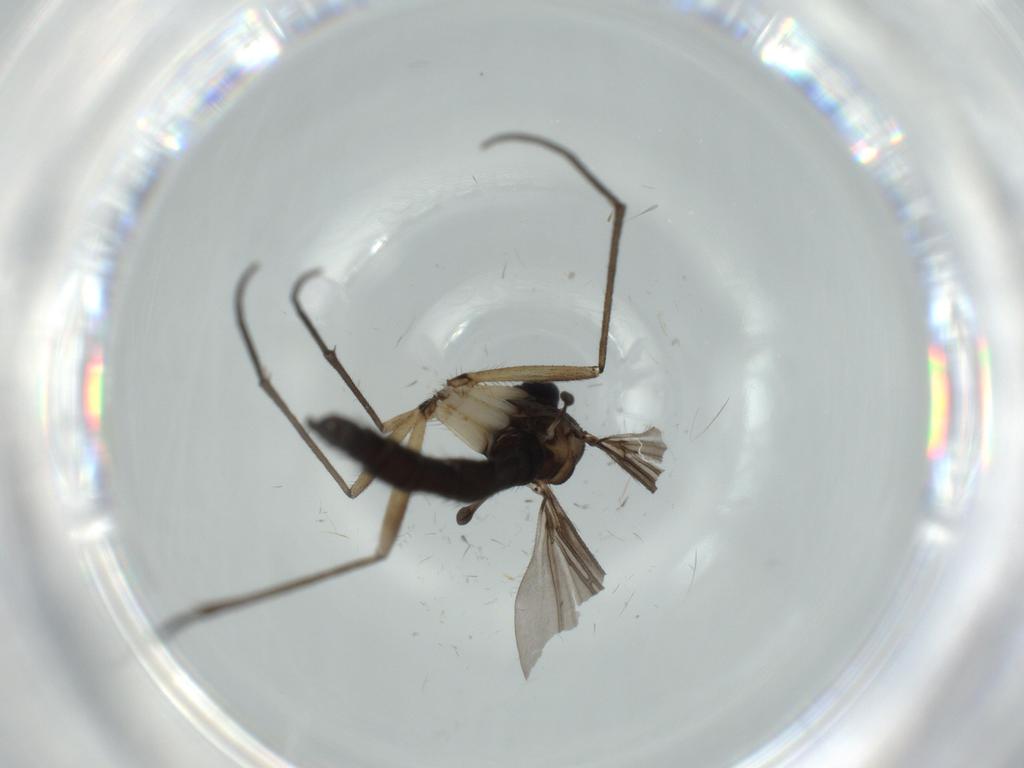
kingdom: Animalia
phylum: Arthropoda
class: Insecta
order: Diptera
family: Sciaridae
